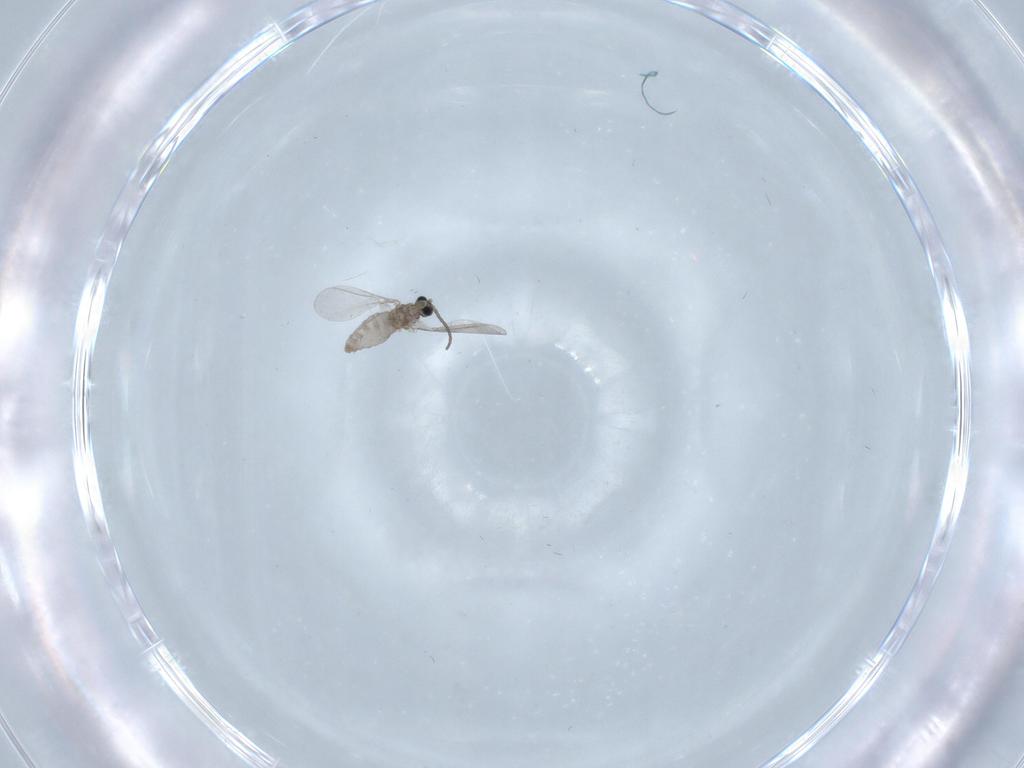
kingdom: Animalia
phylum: Arthropoda
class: Insecta
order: Diptera
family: Cecidomyiidae
